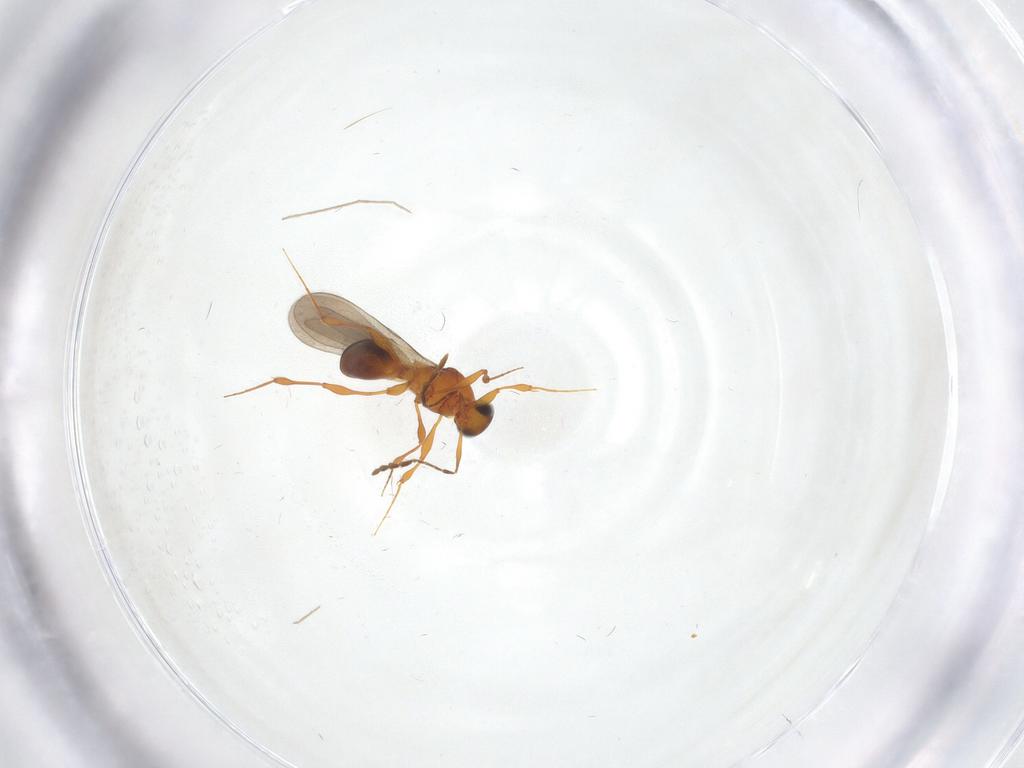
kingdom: Animalia
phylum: Arthropoda
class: Insecta
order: Hymenoptera
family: Platygastridae
